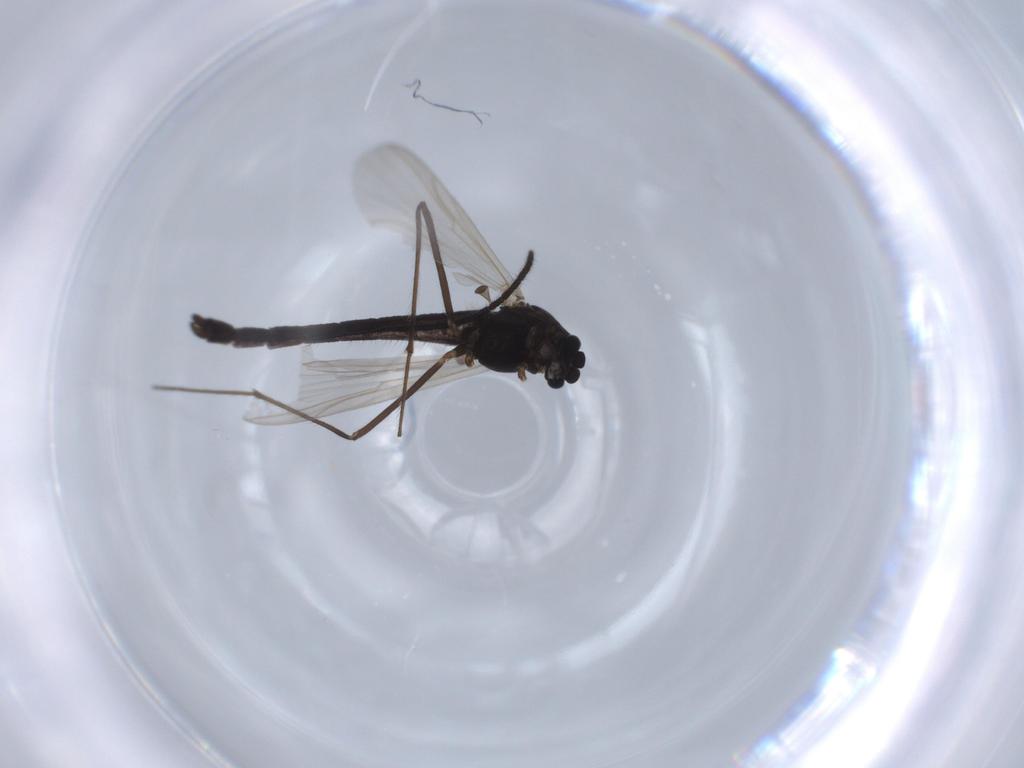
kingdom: Animalia
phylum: Arthropoda
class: Insecta
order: Diptera
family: Chironomidae
